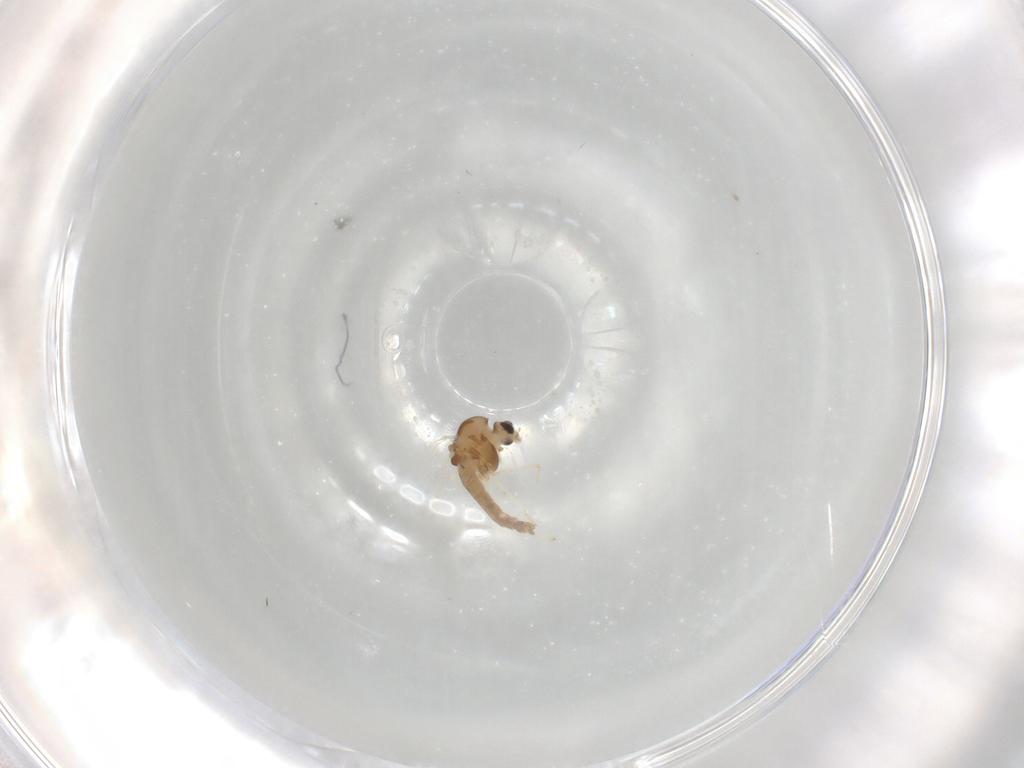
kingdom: Animalia
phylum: Arthropoda
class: Insecta
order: Diptera
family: Chironomidae
